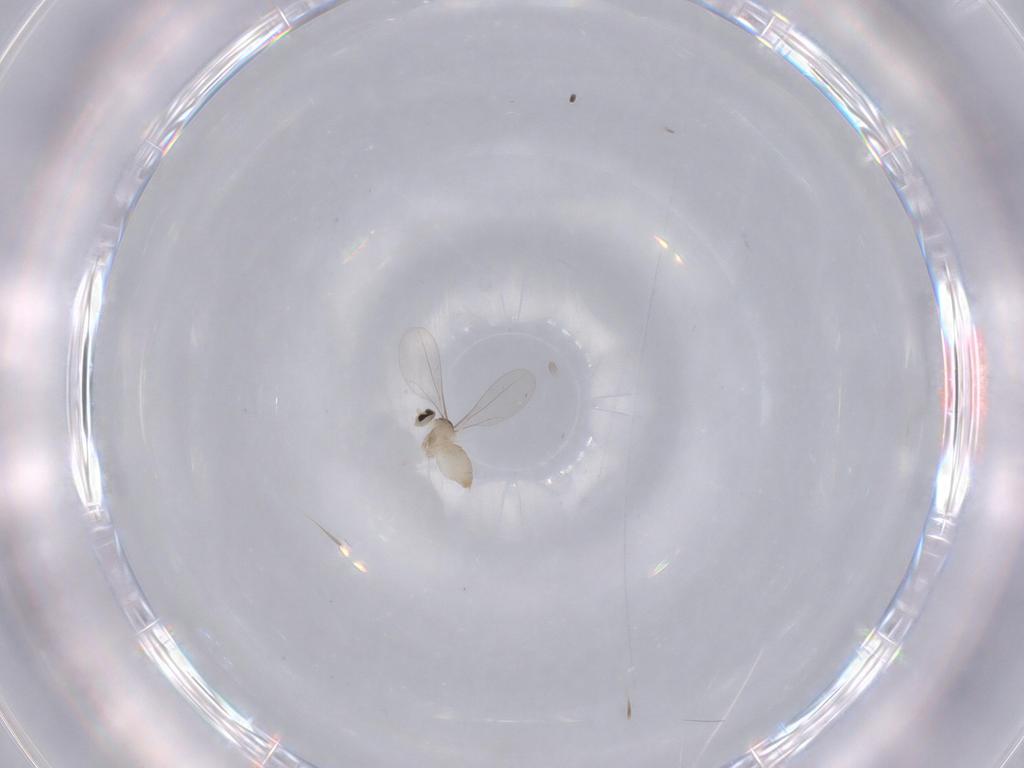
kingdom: Animalia
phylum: Arthropoda
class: Insecta
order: Diptera
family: Cecidomyiidae
